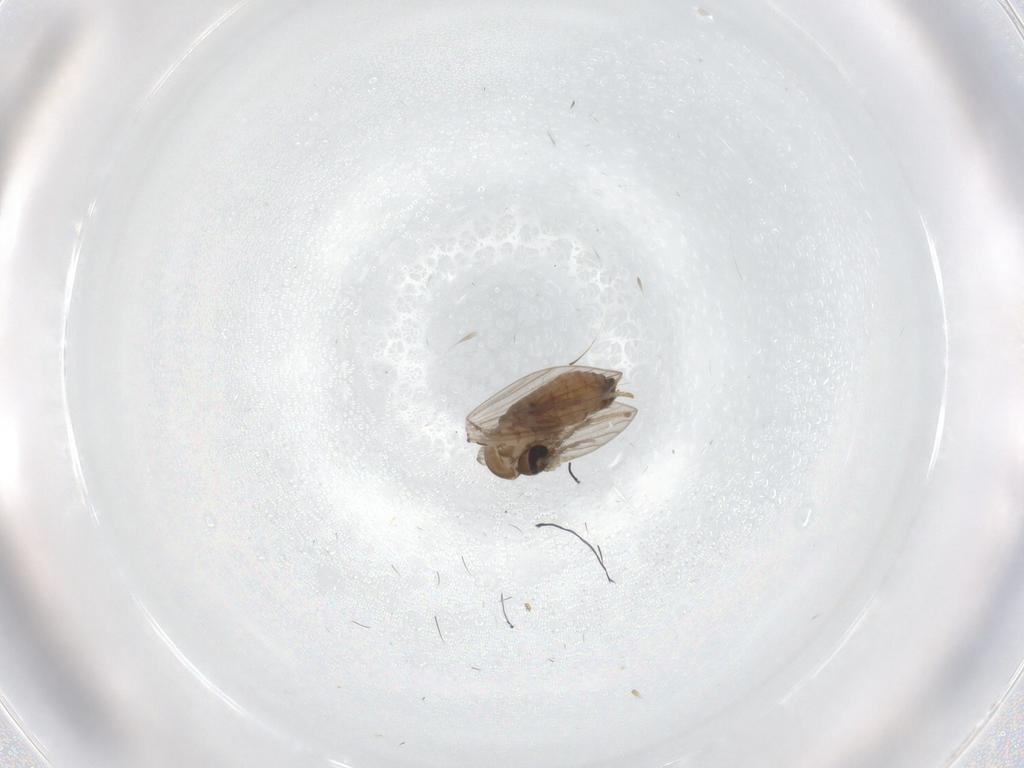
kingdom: Animalia
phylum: Arthropoda
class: Insecta
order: Diptera
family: Psychodidae
